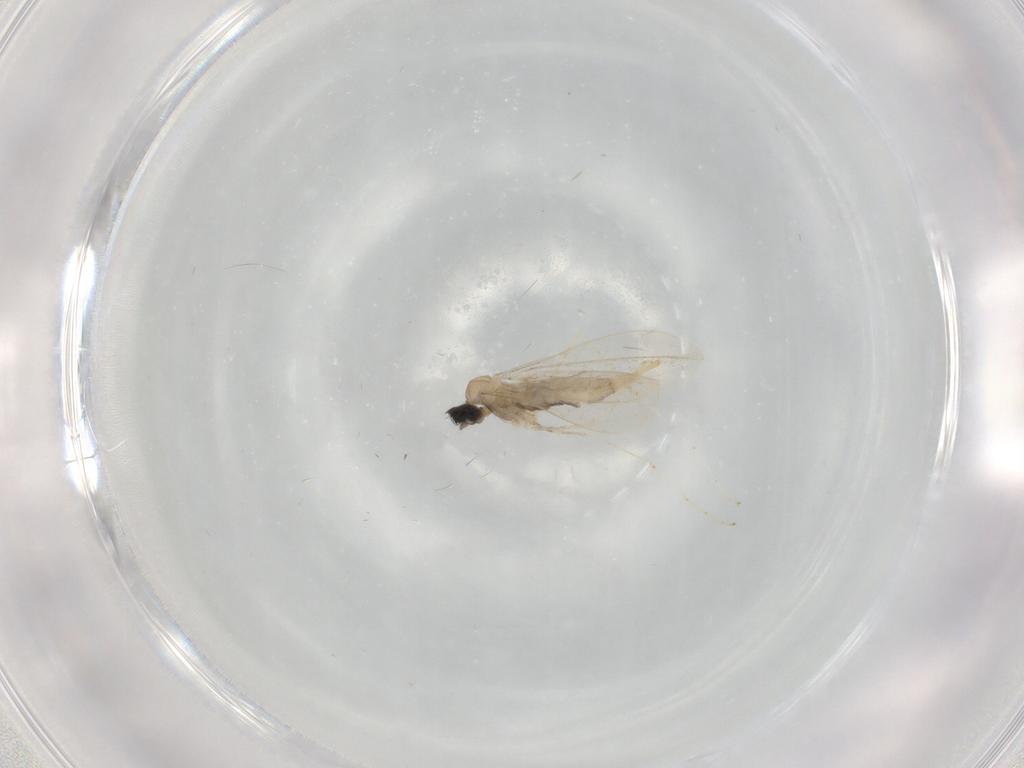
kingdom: Animalia
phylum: Arthropoda
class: Insecta
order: Diptera
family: Cecidomyiidae
